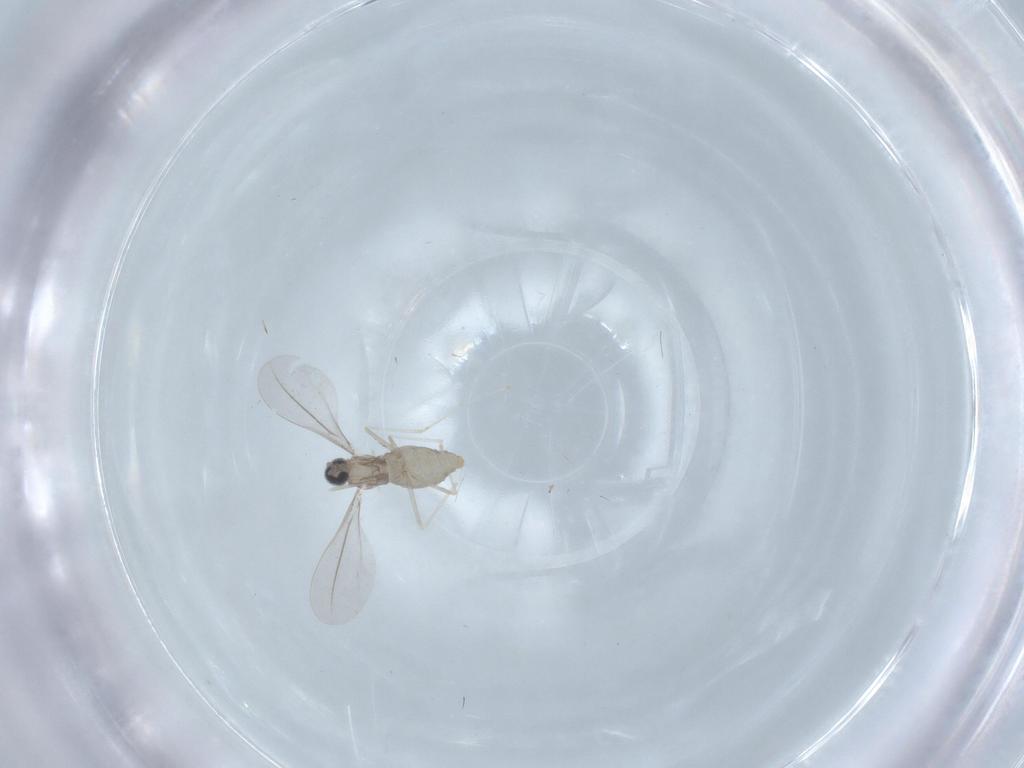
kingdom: Animalia
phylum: Arthropoda
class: Insecta
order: Diptera
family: Cecidomyiidae
